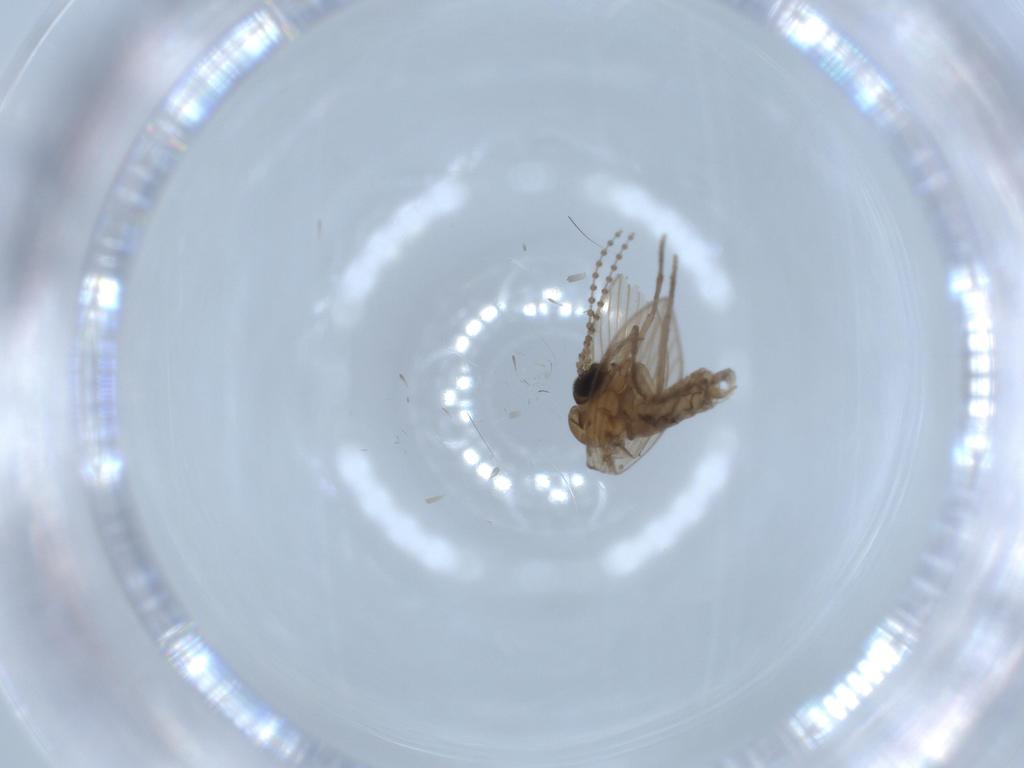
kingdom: Animalia
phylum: Arthropoda
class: Insecta
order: Diptera
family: Psychodidae
